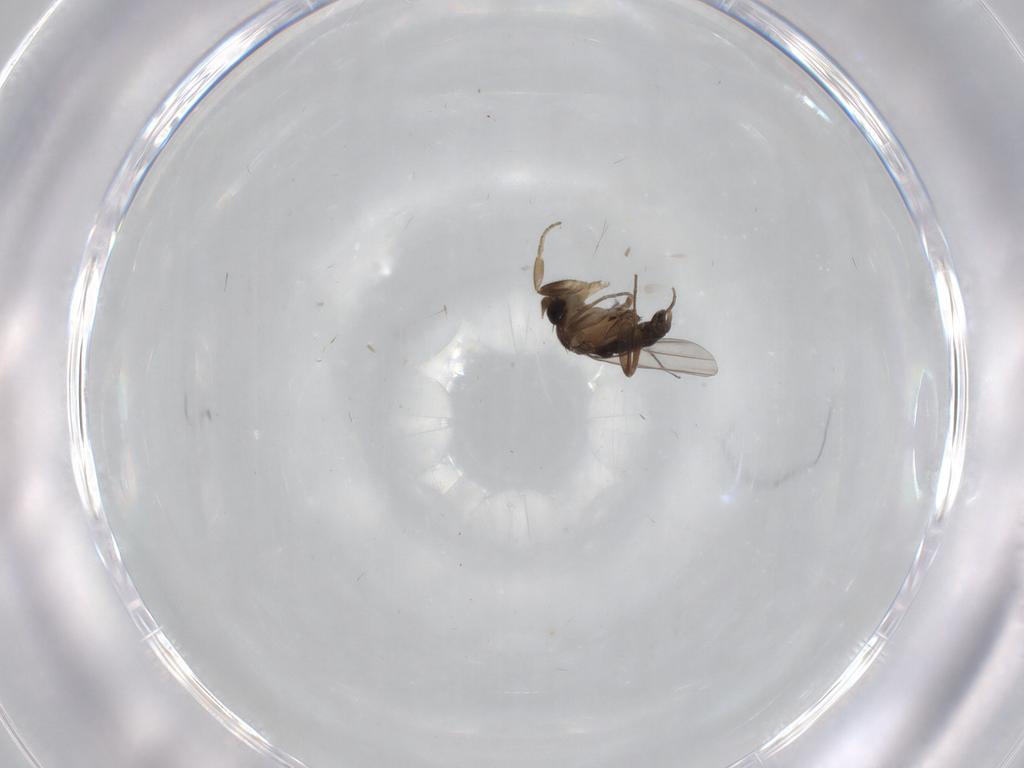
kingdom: Animalia
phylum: Arthropoda
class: Insecta
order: Diptera
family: Phoridae
